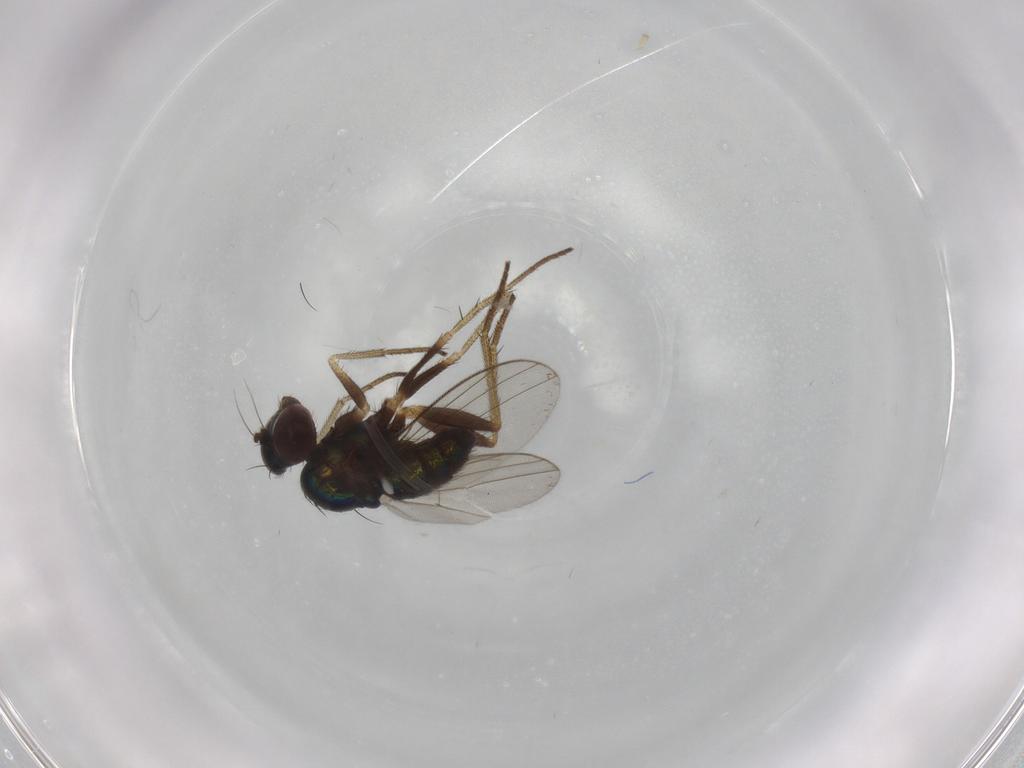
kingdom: Animalia
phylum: Arthropoda
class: Insecta
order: Diptera
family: Dolichopodidae
